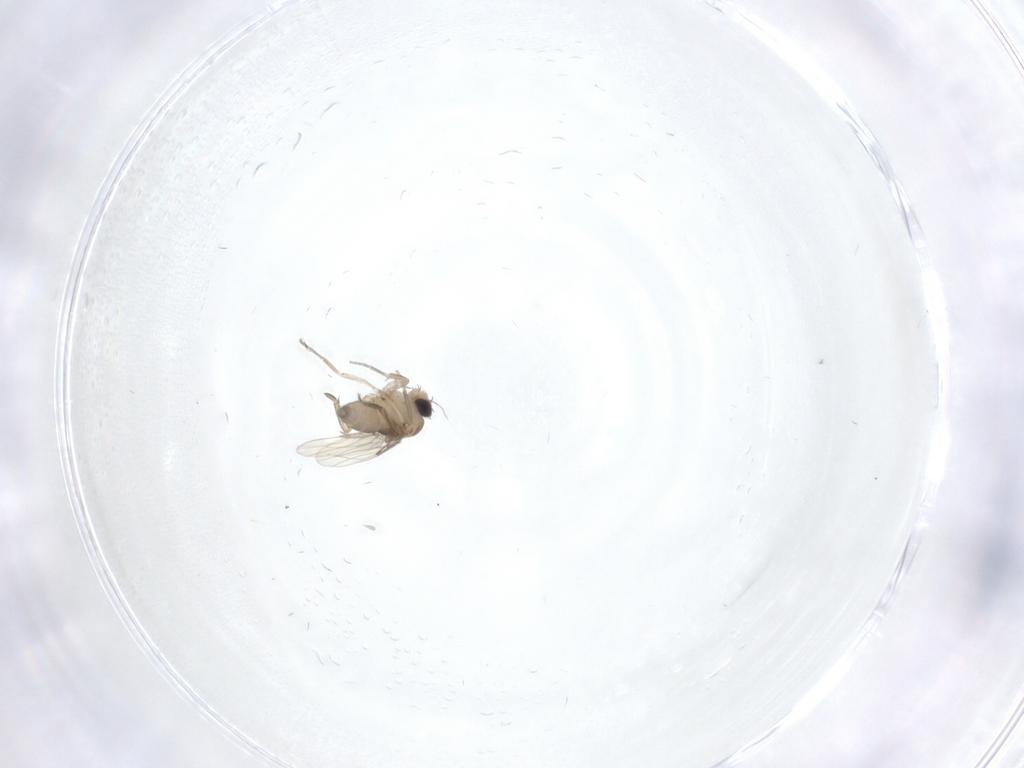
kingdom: Animalia
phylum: Arthropoda
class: Insecta
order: Diptera
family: Phoridae
